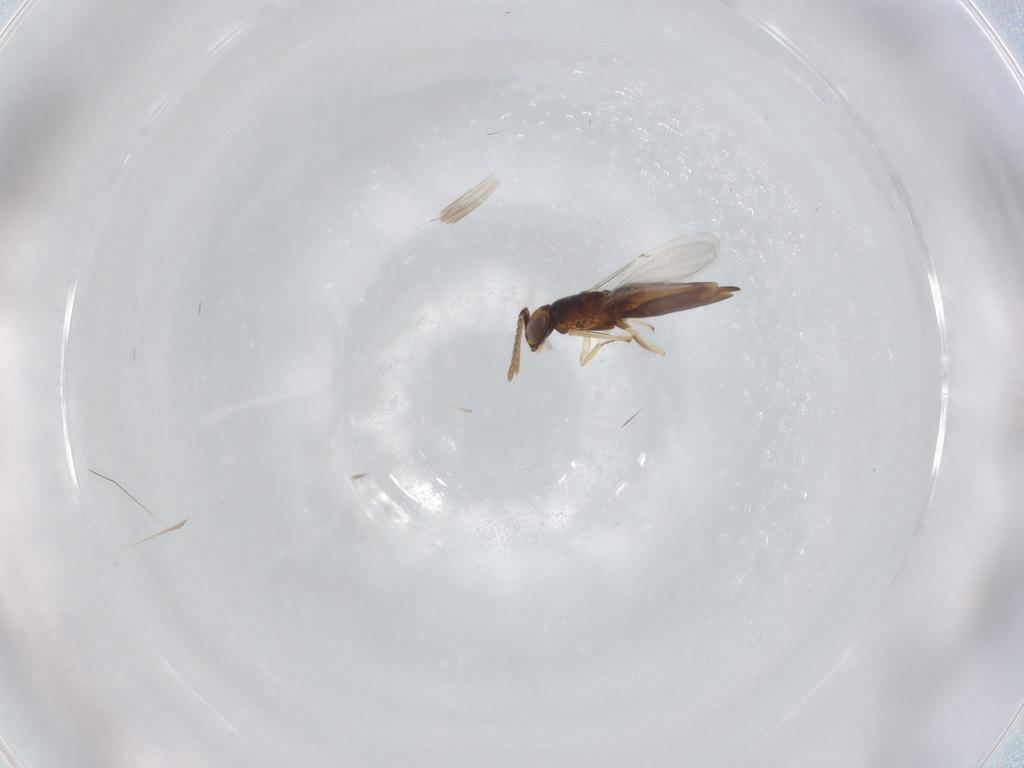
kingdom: Animalia
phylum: Arthropoda
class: Insecta
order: Hymenoptera
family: Encyrtidae
